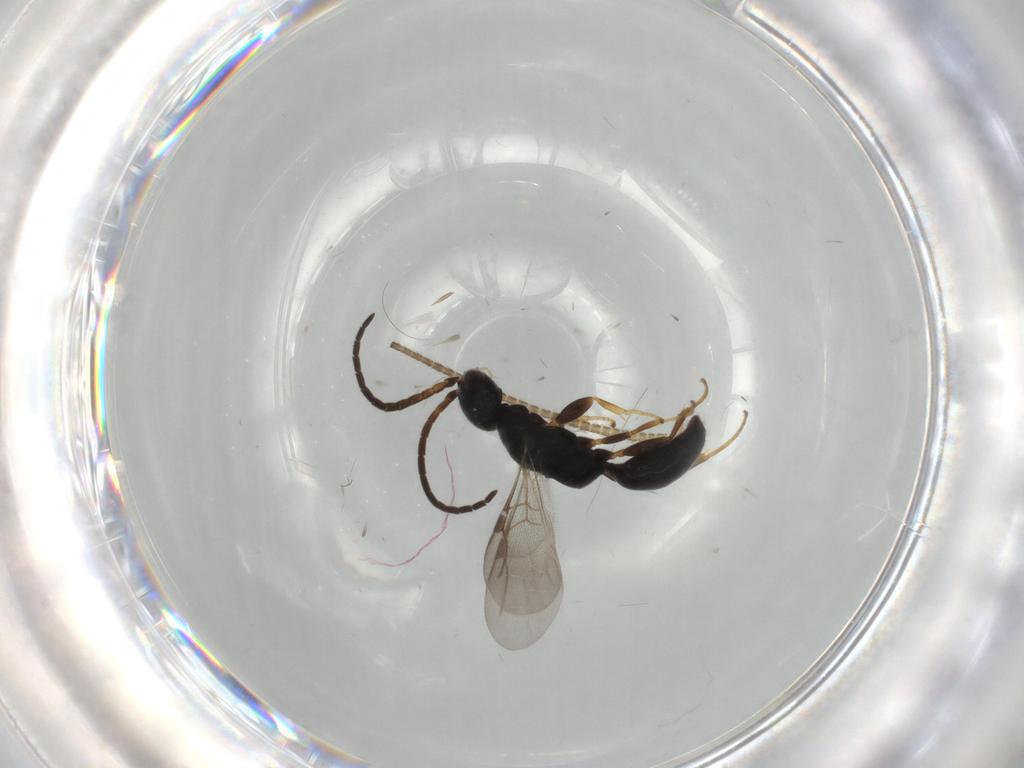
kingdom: Animalia
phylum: Arthropoda
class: Insecta
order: Hymenoptera
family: Bethylidae
